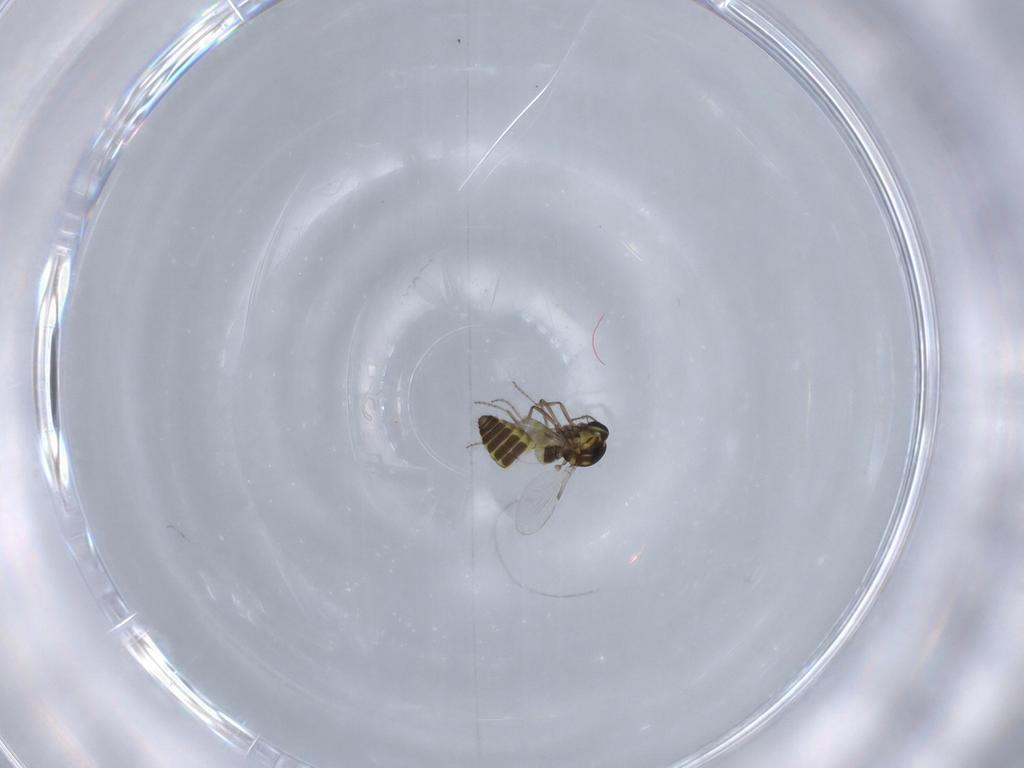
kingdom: Animalia
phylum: Arthropoda
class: Insecta
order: Diptera
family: Ceratopogonidae
